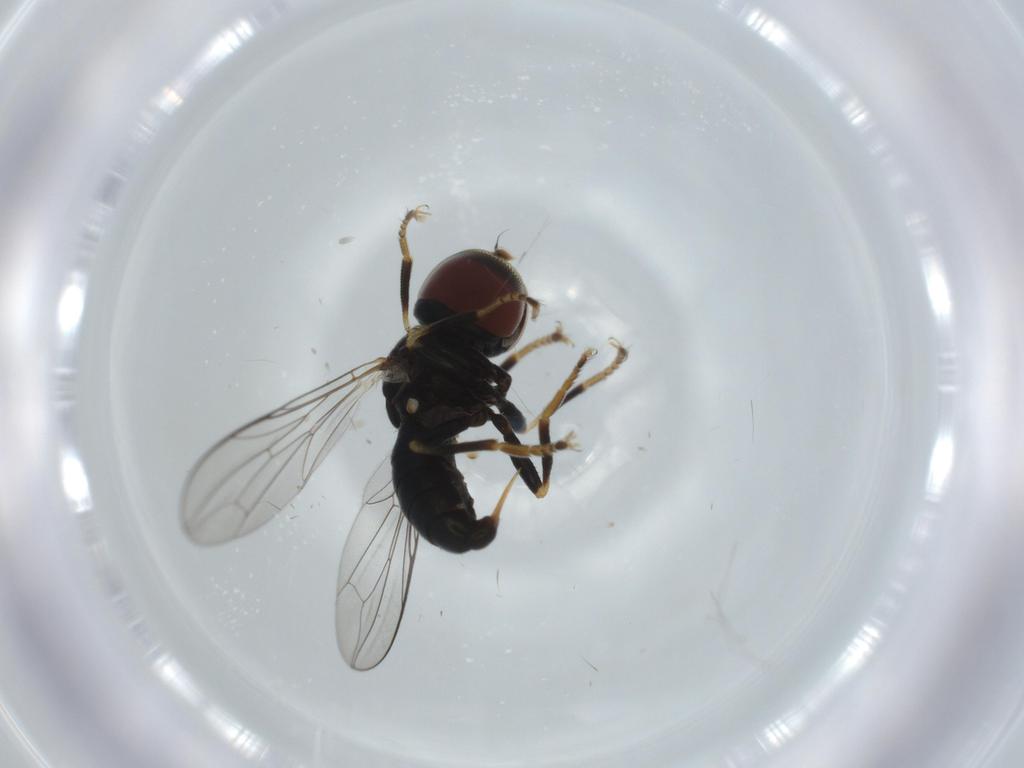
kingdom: Animalia
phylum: Arthropoda
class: Insecta
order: Diptera
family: Pipunculidae
